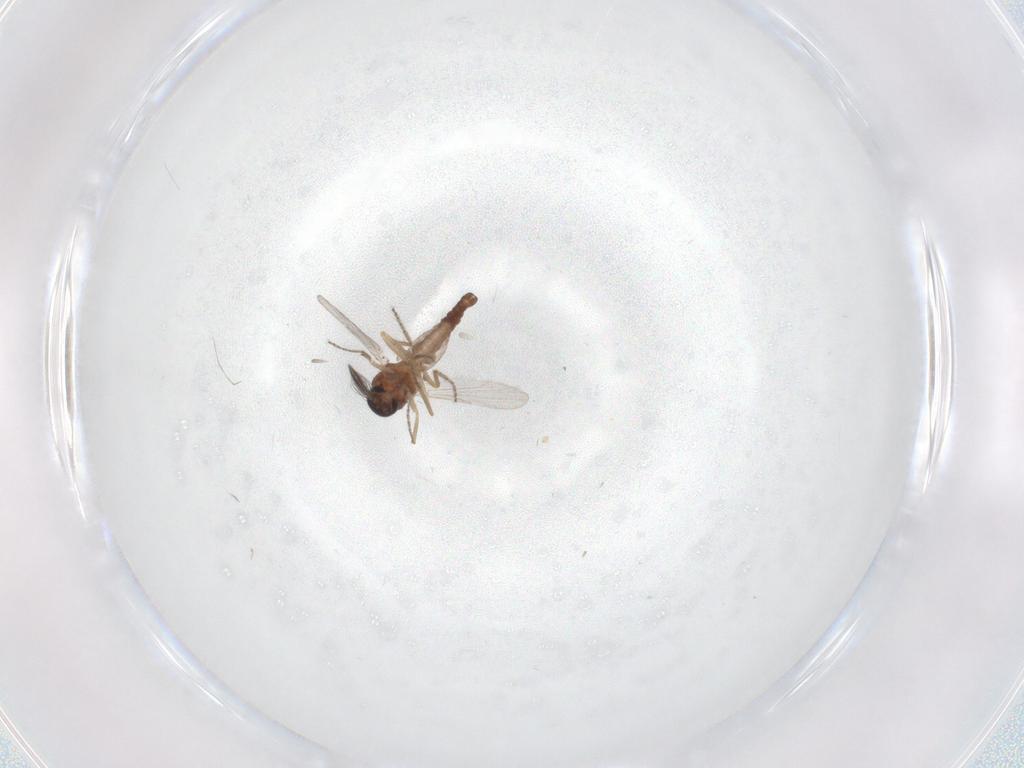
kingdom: Animalia
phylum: Arthropoda
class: Insecta
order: Diptera
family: Ceratopogonidae
